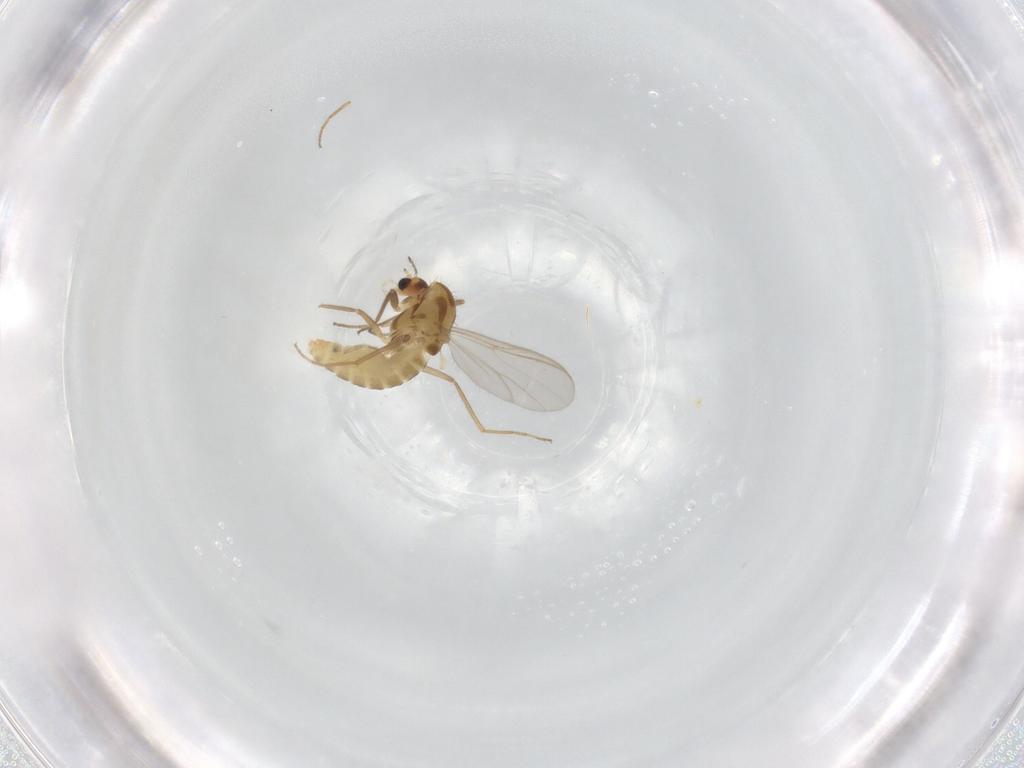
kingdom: Animalia
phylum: Arthropoda
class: Insecta
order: Diptera
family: Chironomidae
